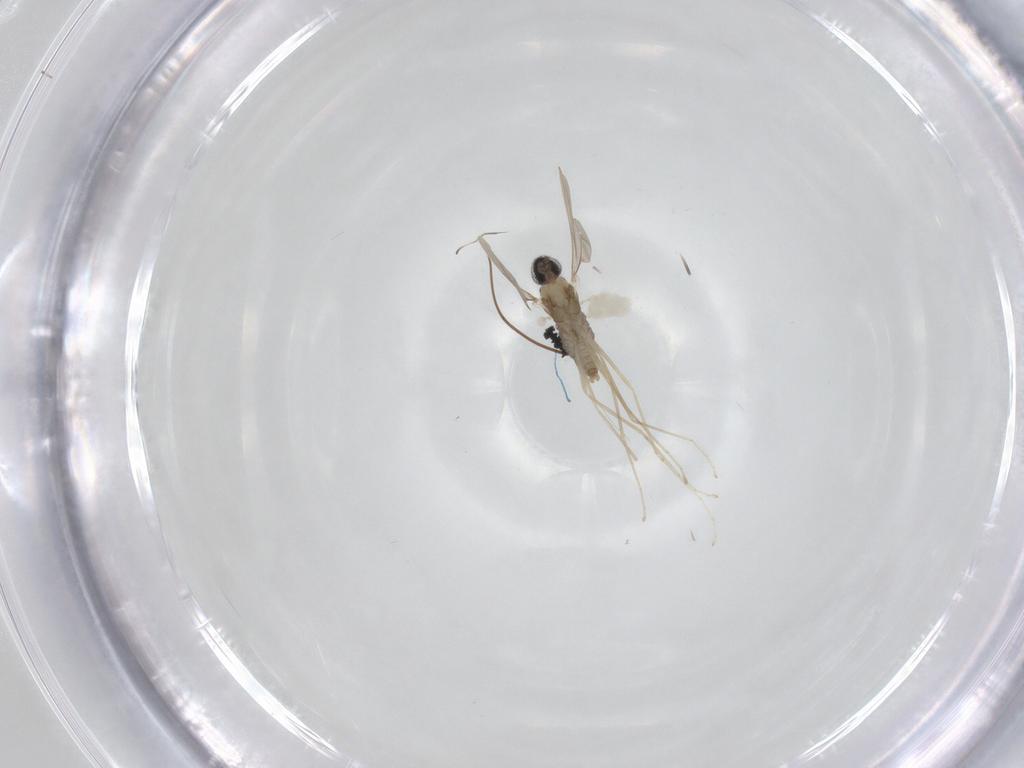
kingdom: Animalia
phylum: Arthropoda
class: Insecta
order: Diptera
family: Cecidomyiidae
